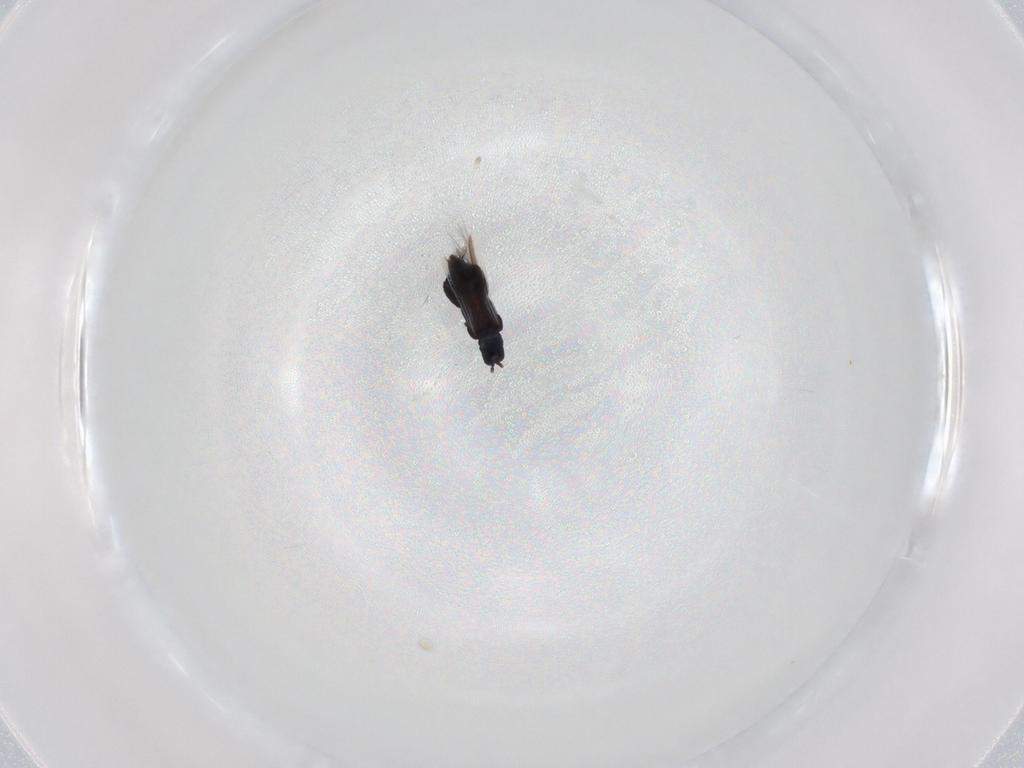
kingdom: Animalia
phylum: Arthropoda
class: Insecta
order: Thysanoptera
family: Aeolothripidae
